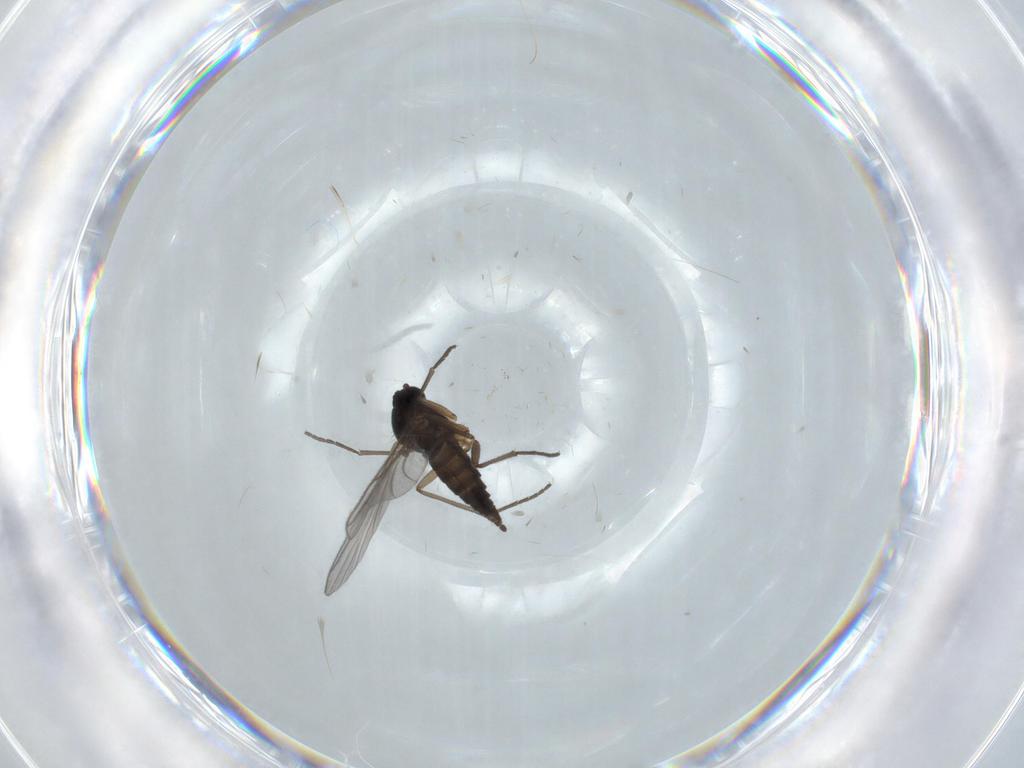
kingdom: Animalia
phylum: Arthropoda
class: Insecta
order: Diptera
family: Sciaridae
